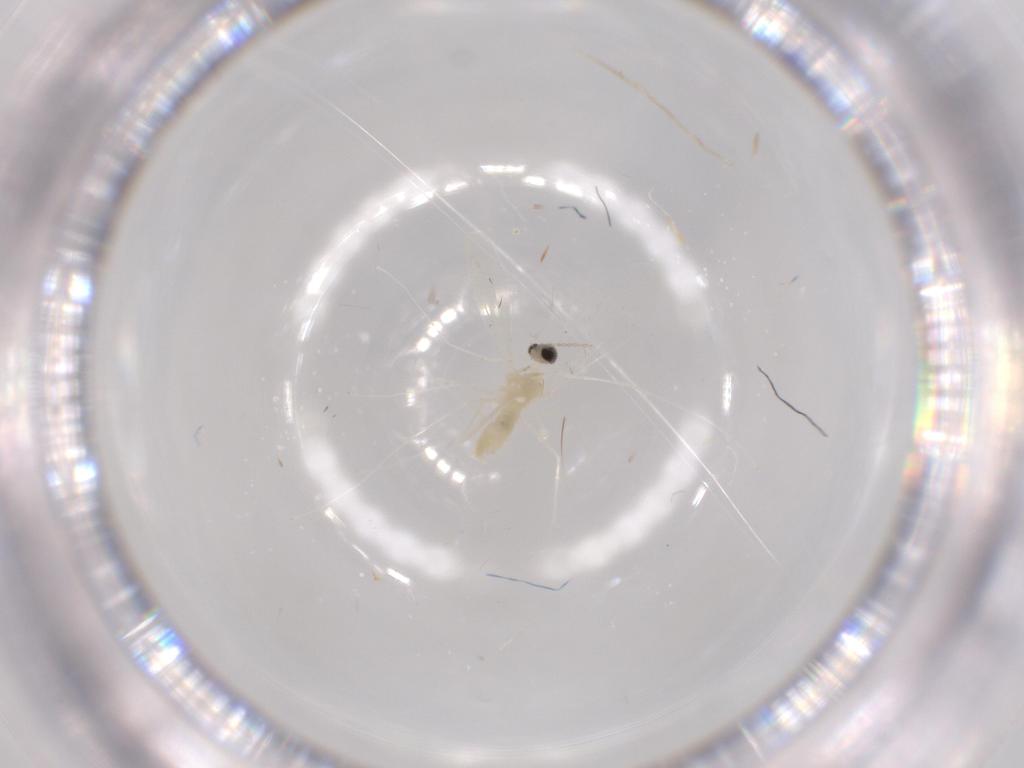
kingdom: Animalia
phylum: Arthropoda
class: Insecta
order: Diptera
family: Cecidomyiidae
